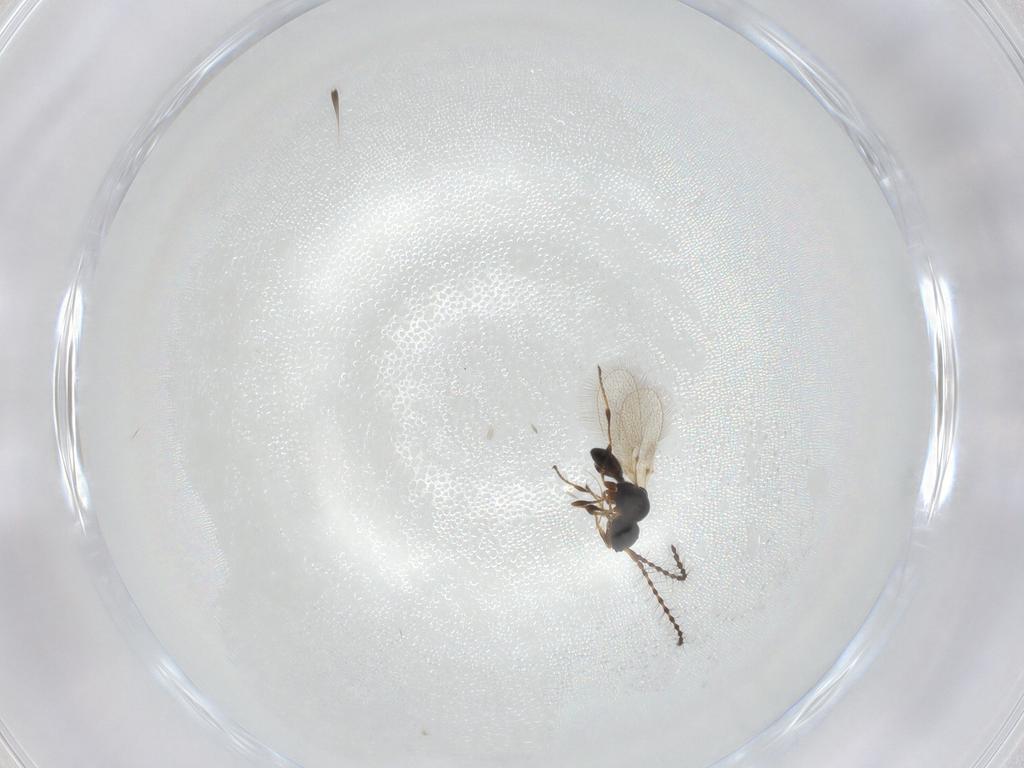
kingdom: Animalia
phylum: Arthropoda
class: Insecta
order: Hymenoptera
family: Diapriidae
